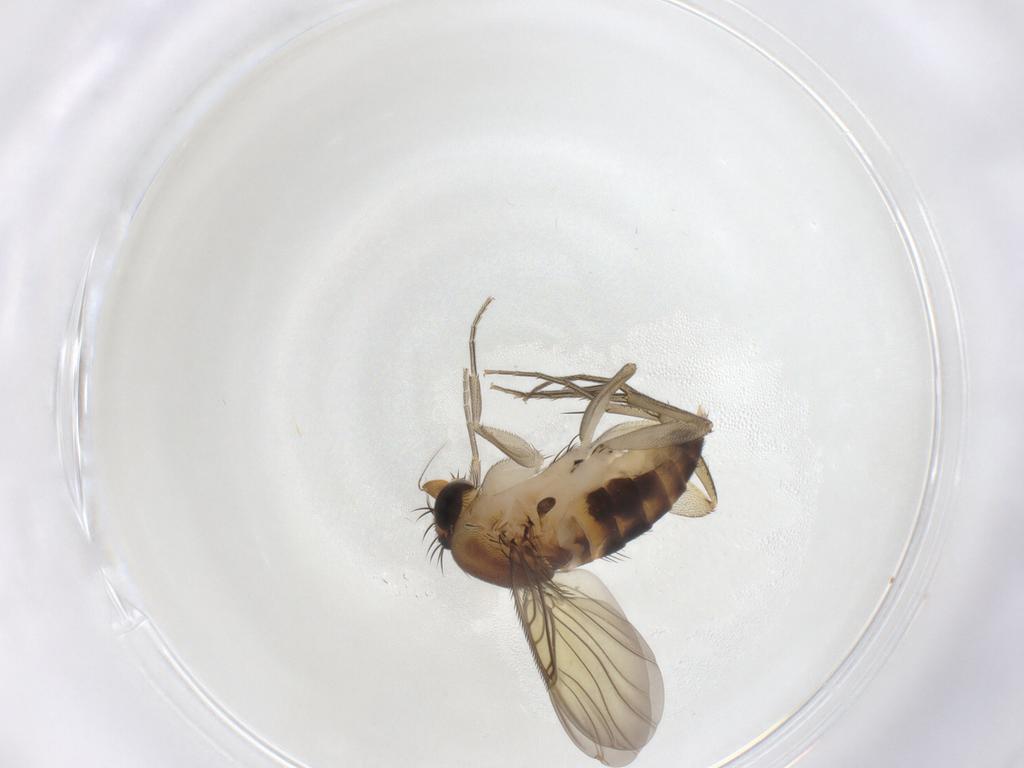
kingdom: Animalia
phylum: Arthropoda
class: Insecta
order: Diptera
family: Phoridae
